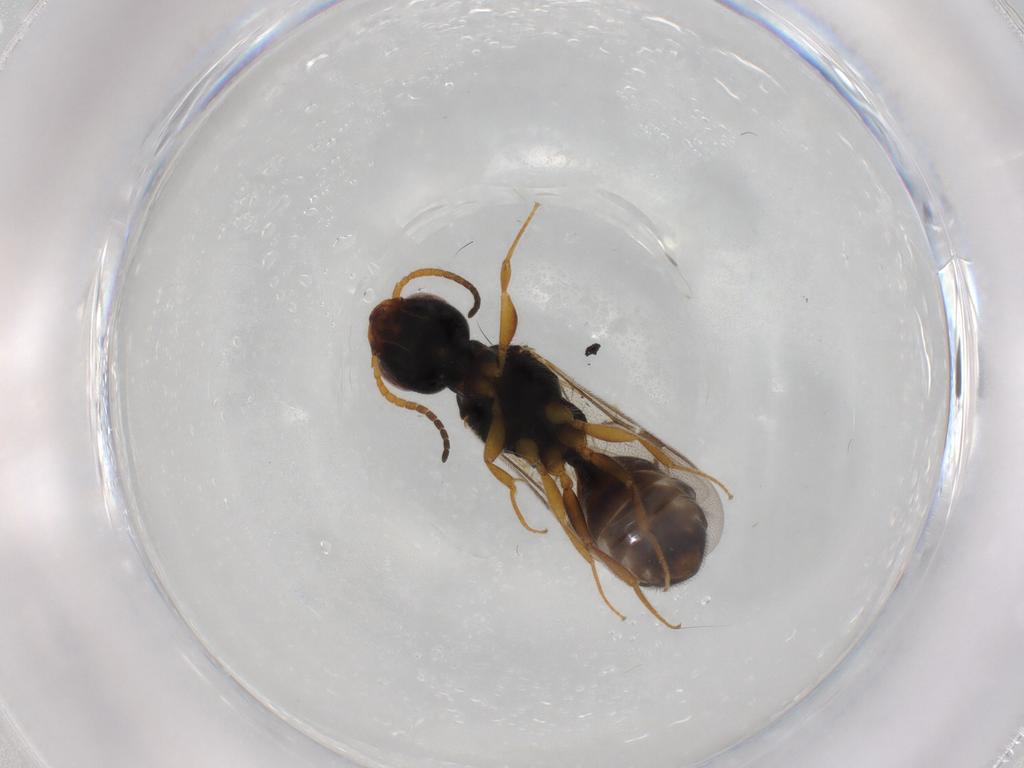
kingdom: Animalia
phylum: Arthropoda
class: Insecta
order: Hymenoptera
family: Bethylidae
